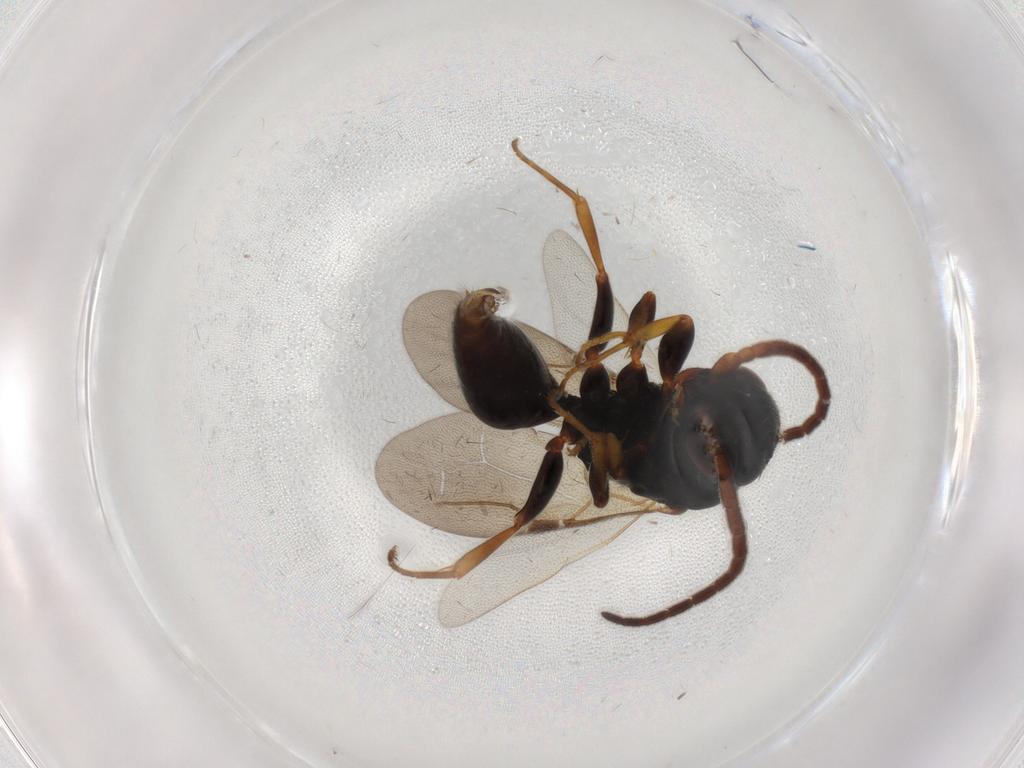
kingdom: Animalia
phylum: Arthropoda
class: Insecta
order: Hymenoptera
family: Bethylidae
